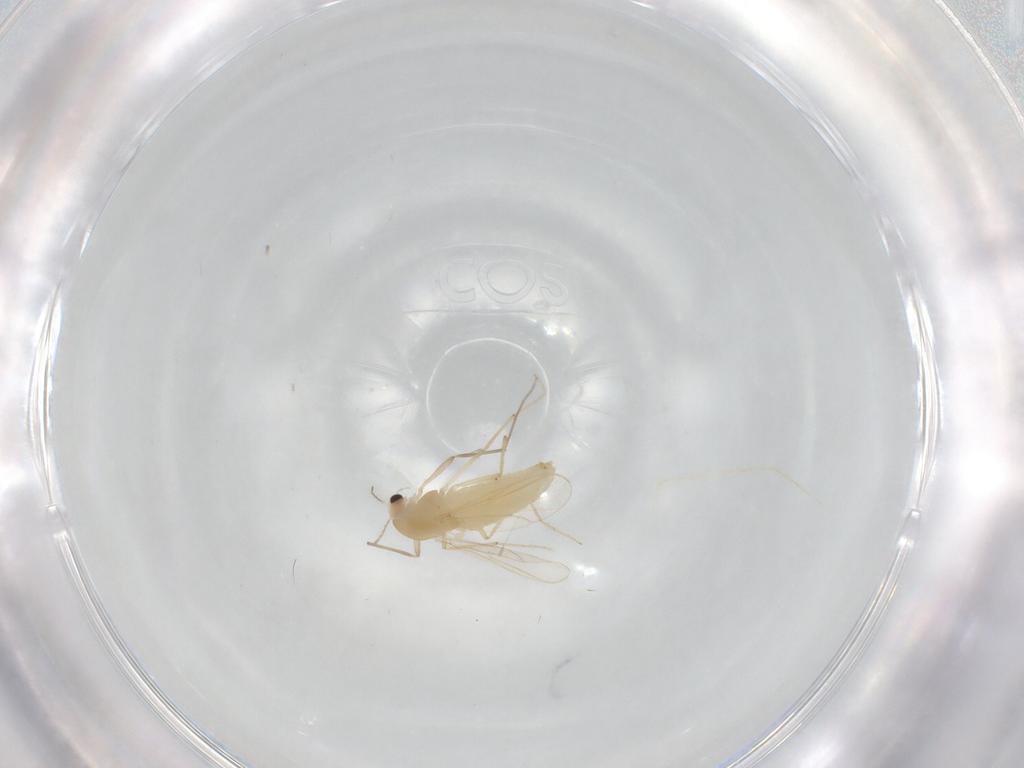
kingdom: Animalia
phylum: Arthropoda
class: Insecta
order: Diptera
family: Chironomidae
